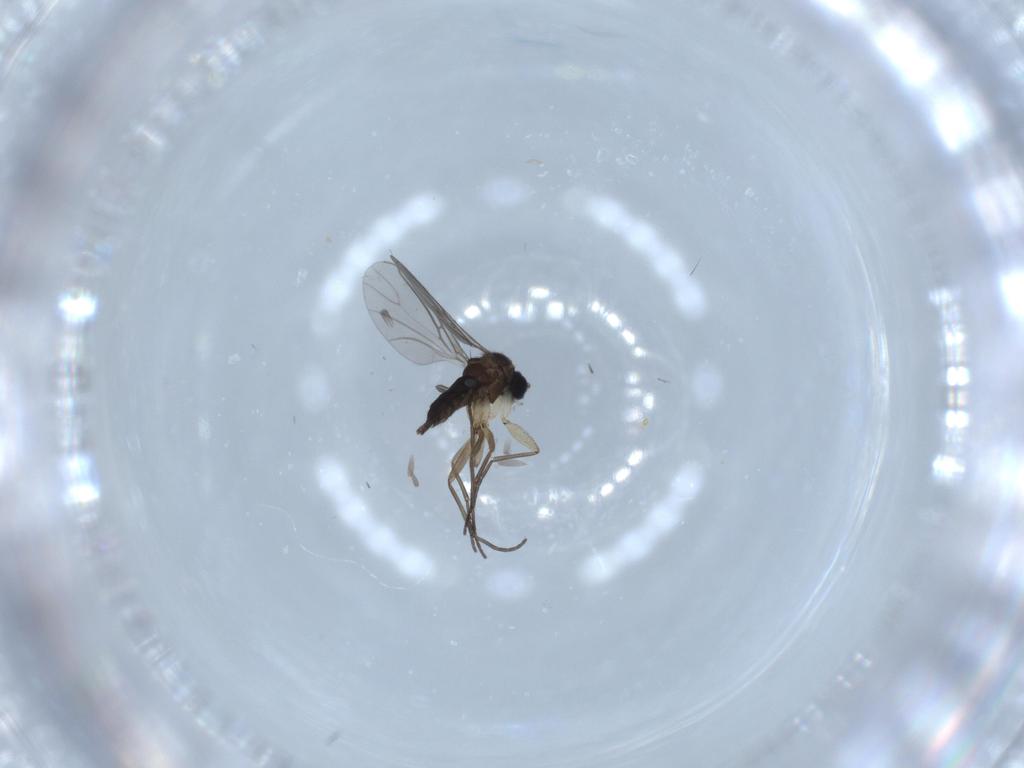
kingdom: Animalia
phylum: Arthropoda
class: Insecta
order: Diptera
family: Sciaridae
